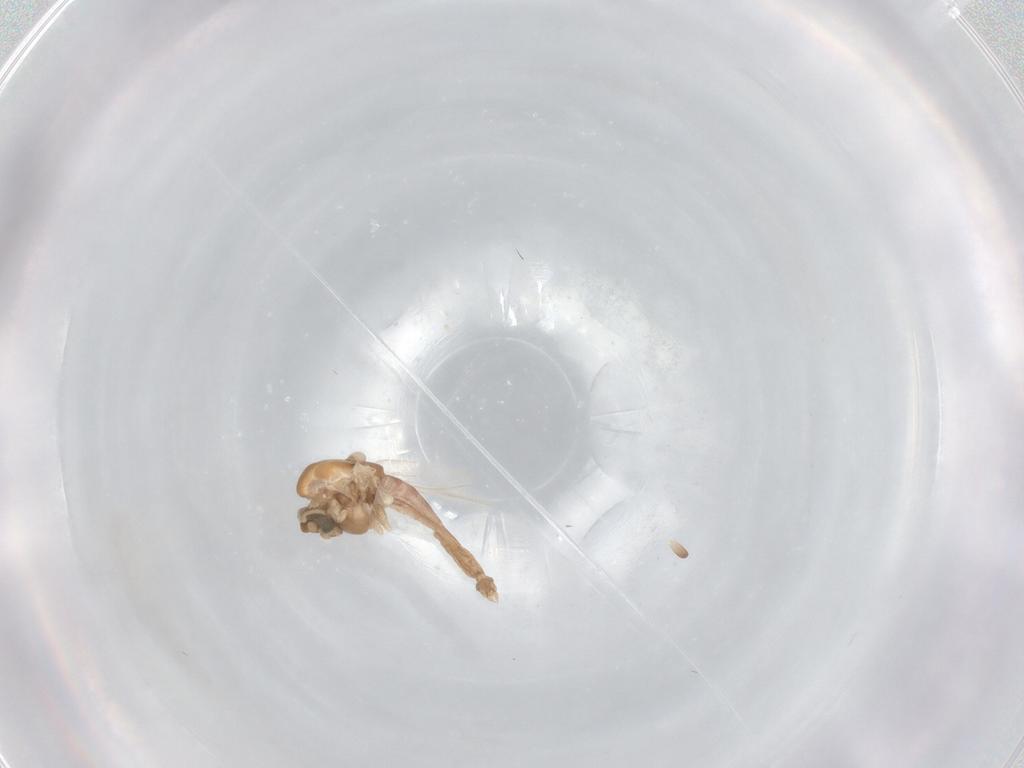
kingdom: Animalia
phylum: Arthropoda
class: Insecta
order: Diptera
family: Chironomidae
